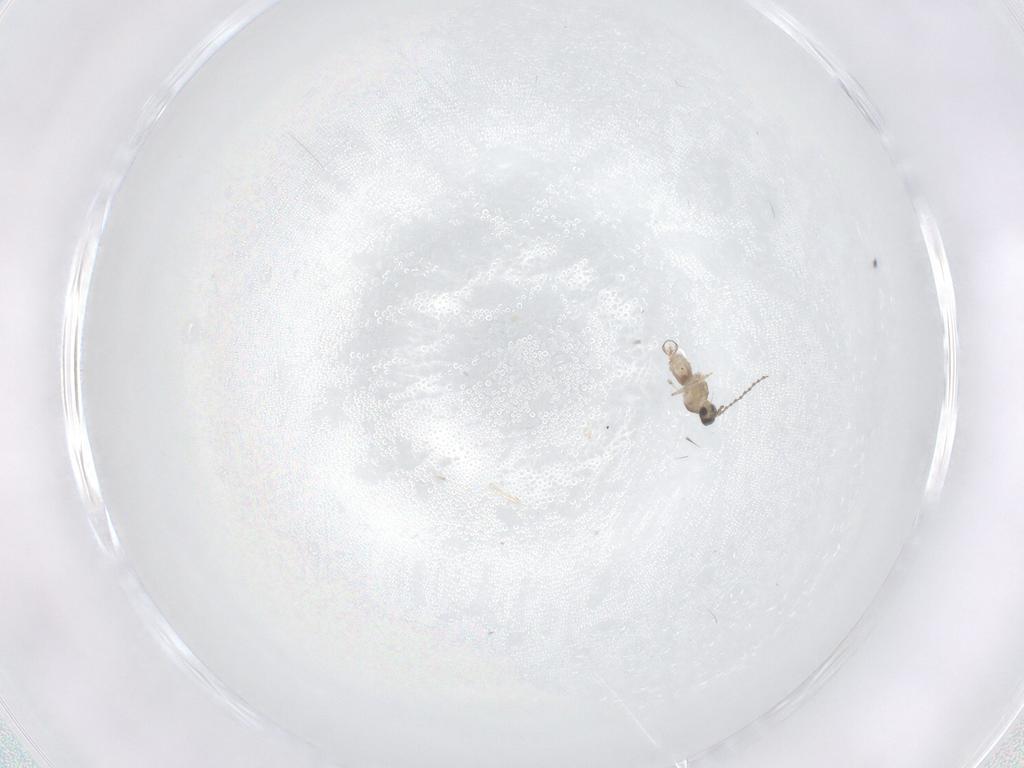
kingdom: Animalia
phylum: Arthropoda
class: Insecta
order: Diptera
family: Cecidomyiidae
